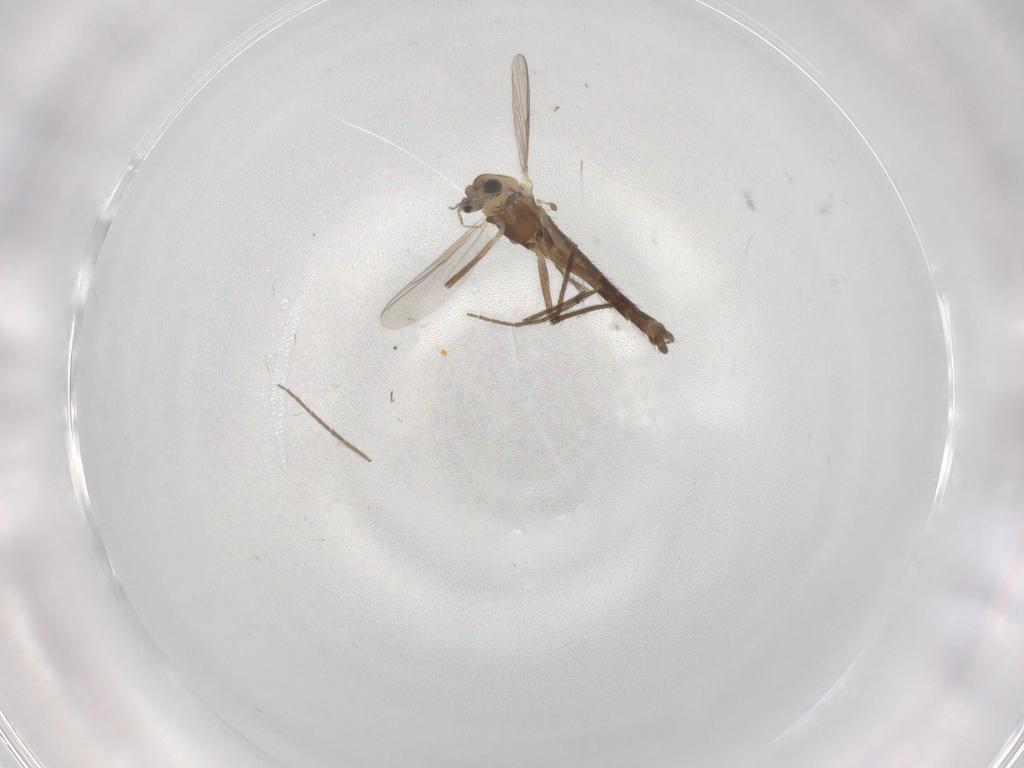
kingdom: Animalia
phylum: Arthropoda
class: Insecta
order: Diptera
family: Chironomidae
